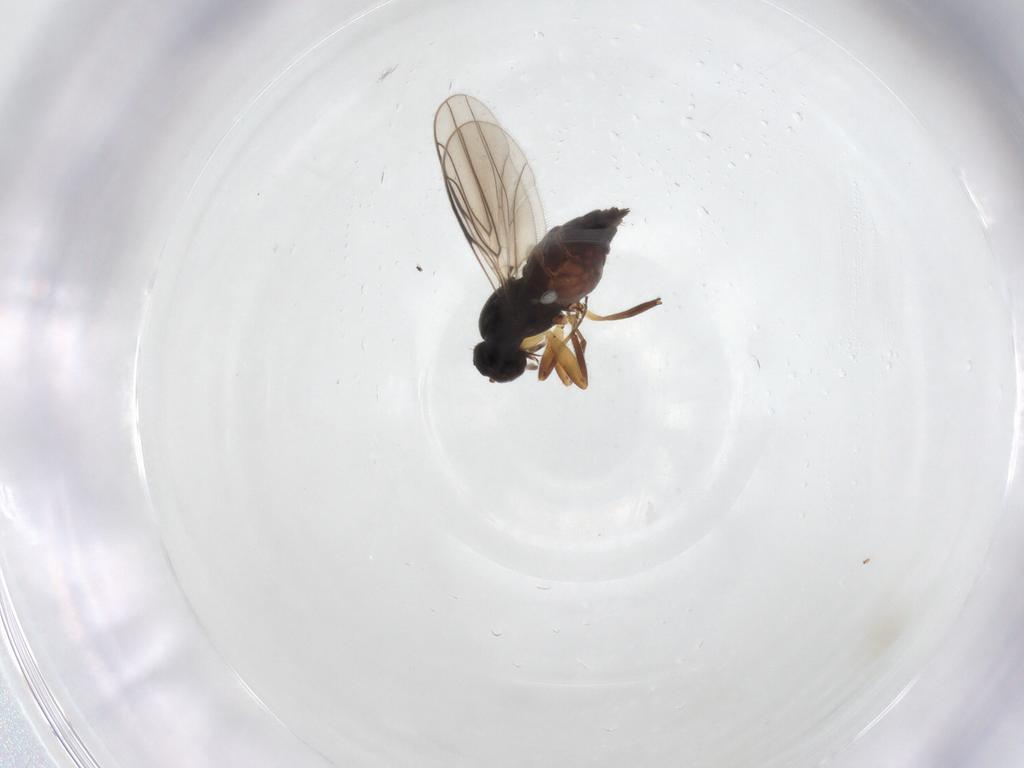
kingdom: Animalia
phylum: Arthropoda
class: Insecta
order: Diptera
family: Hybotidae
